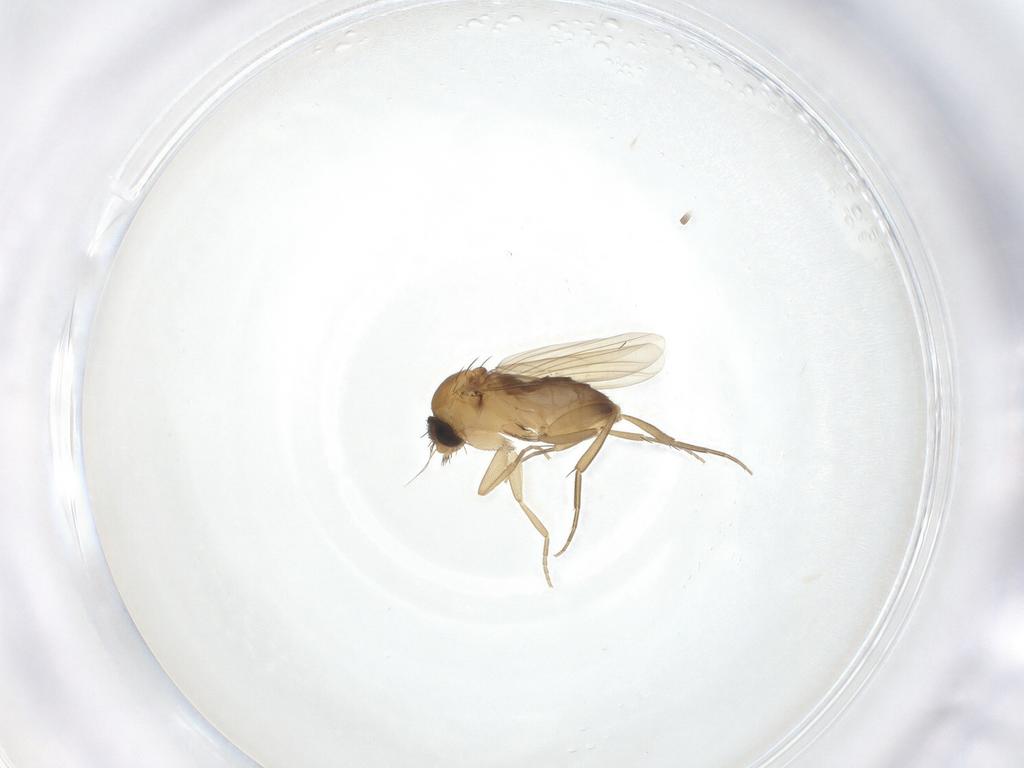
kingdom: Animalia
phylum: Arthropoda
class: Insecta
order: Diptera
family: Phoridae
